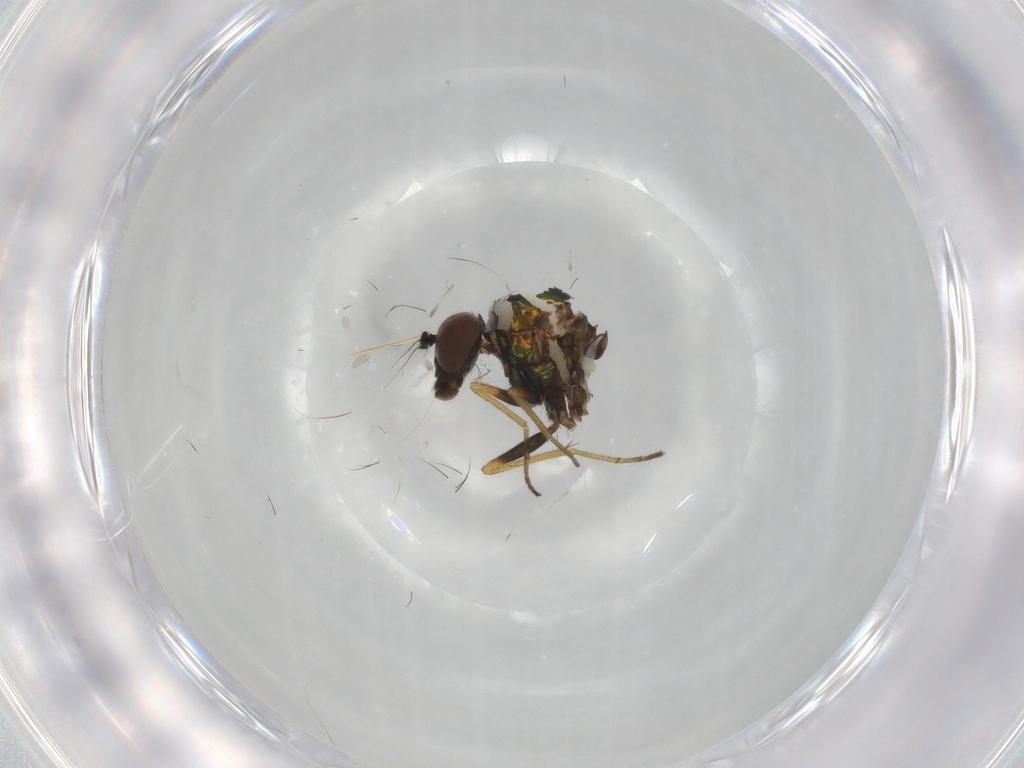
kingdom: Animalia
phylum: Arthropoda
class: Insecta
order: Diptera
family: Dolichopodidae
